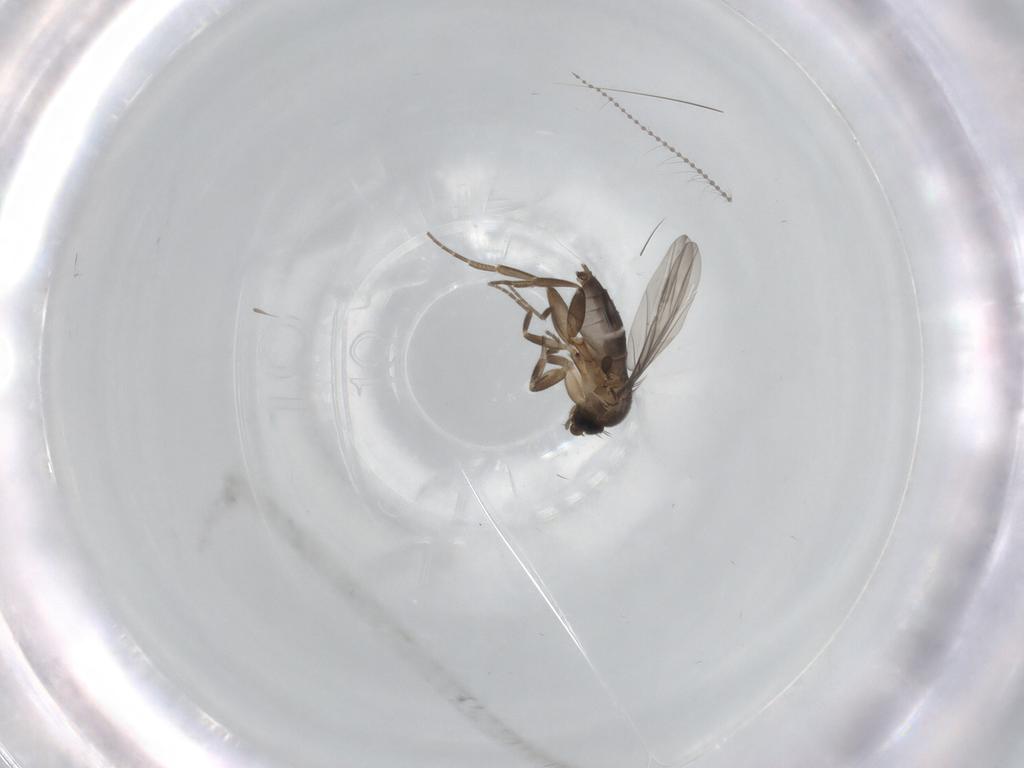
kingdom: Animalia
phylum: Arthropoda
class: Insecta
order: Diptera
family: Cecidomyiidae
